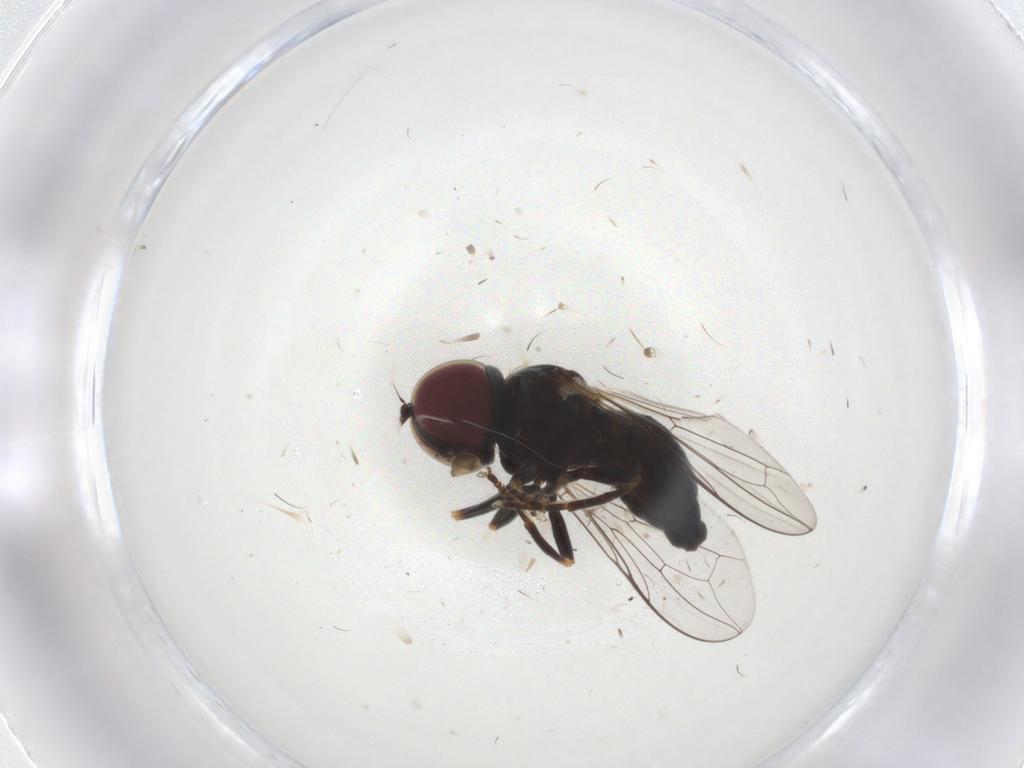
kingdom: Animalia
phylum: Arthropoda
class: Insecta
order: Diptera
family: Pipunculidae
